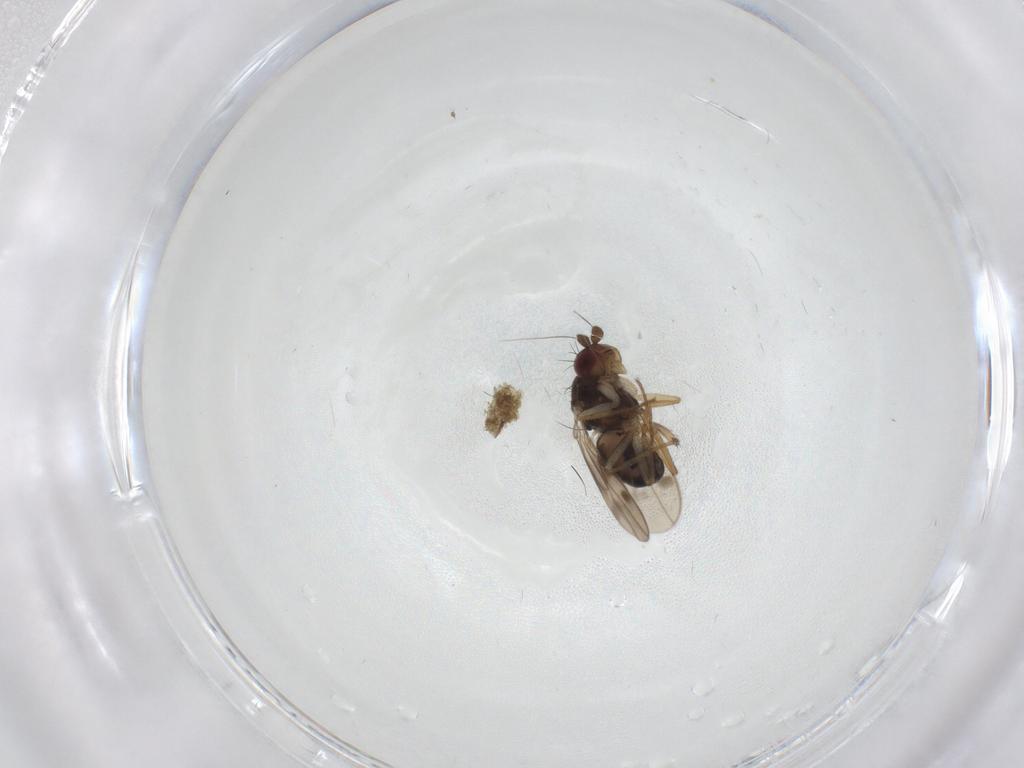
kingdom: Animalia
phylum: Arthropoda
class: Insecta
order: Diptera
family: Sphaeroceridae
